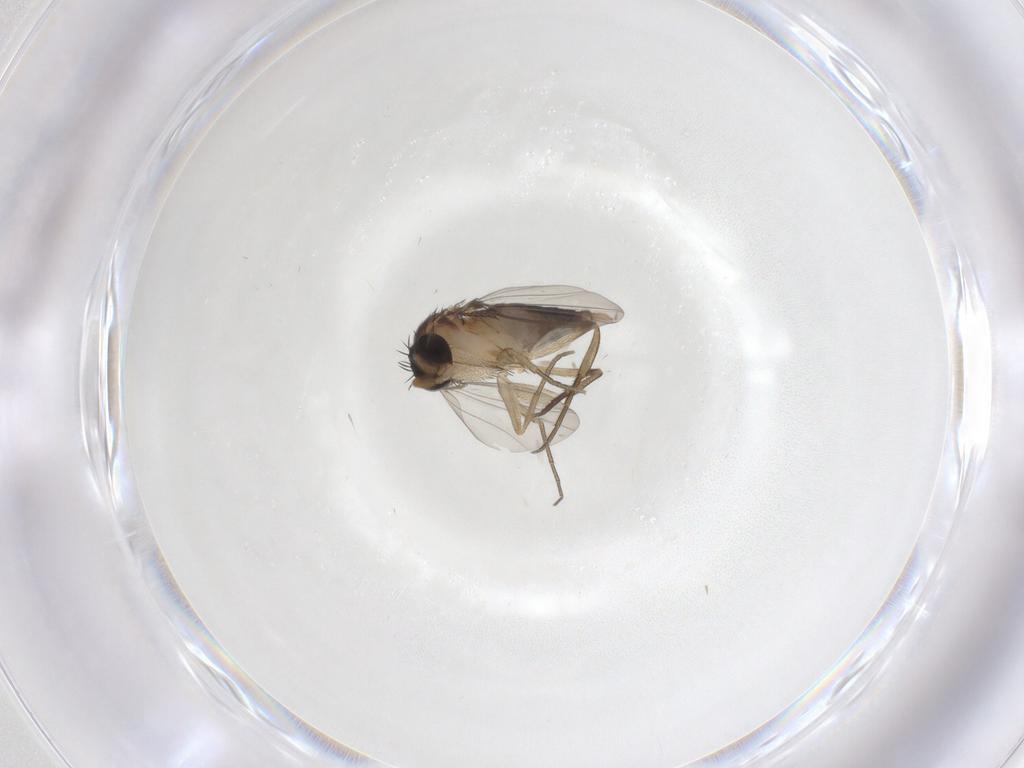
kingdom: Animalia
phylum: Arthropoda
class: Insecta
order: Diptera
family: Phoridae
